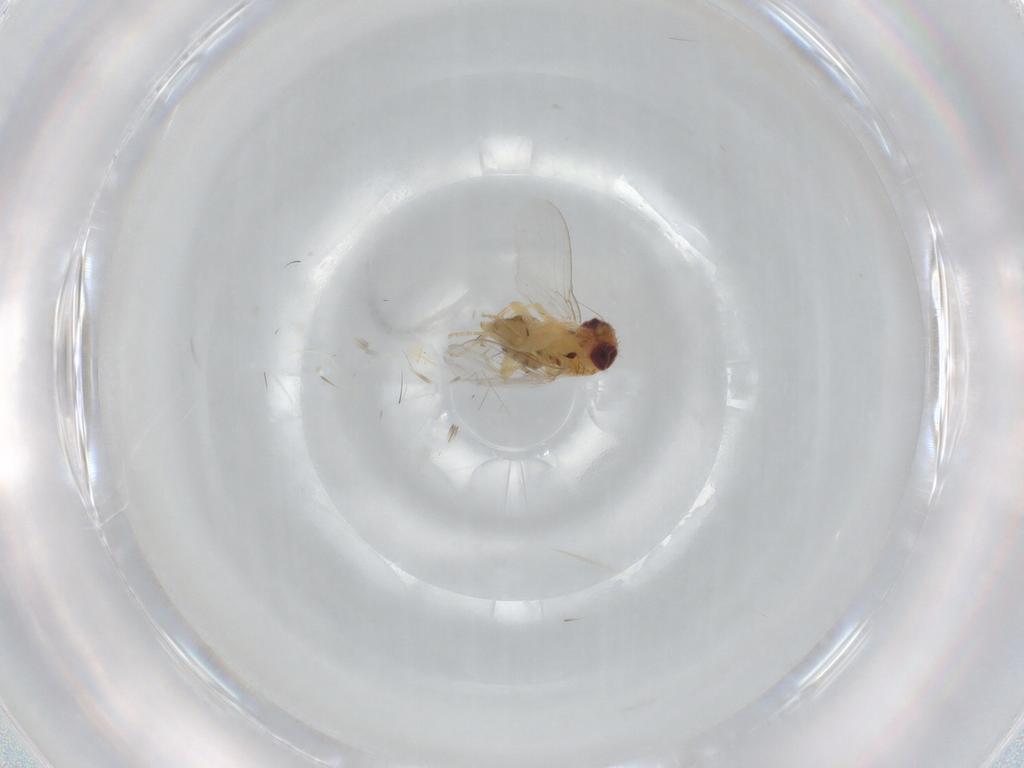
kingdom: Animalia
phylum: Arthropoda
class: Insecta
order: Diptera
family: Chloropidae
